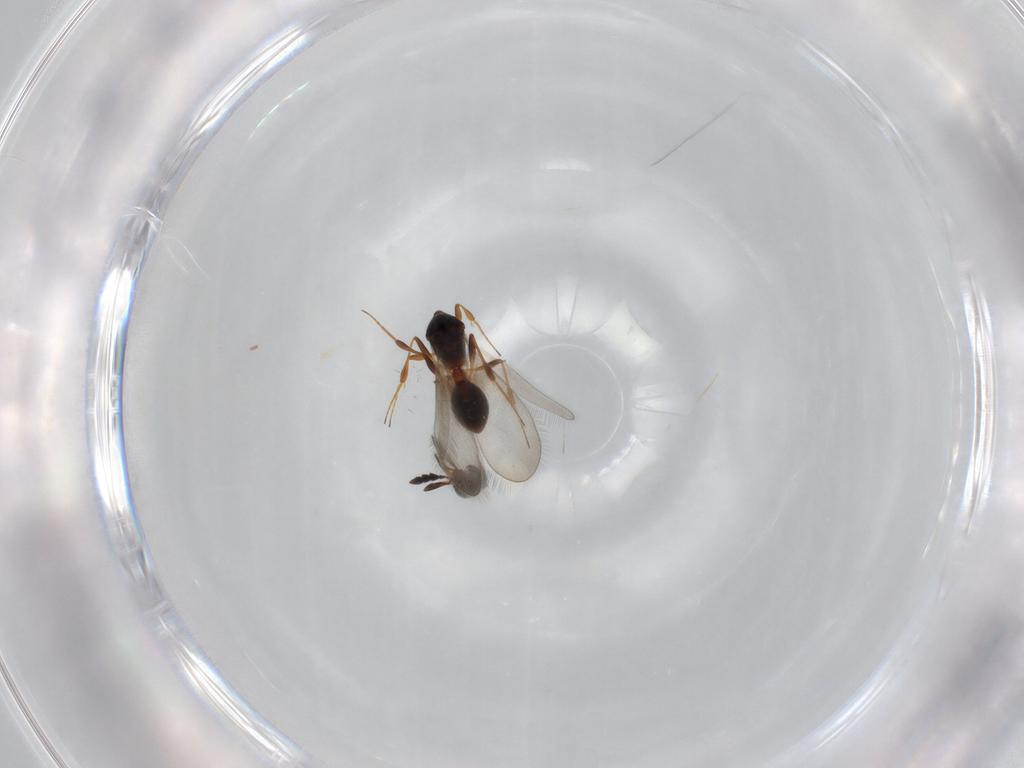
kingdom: Animalia
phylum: Arthropoda
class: Insecta
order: Hymenoptera
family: Platygastridae
